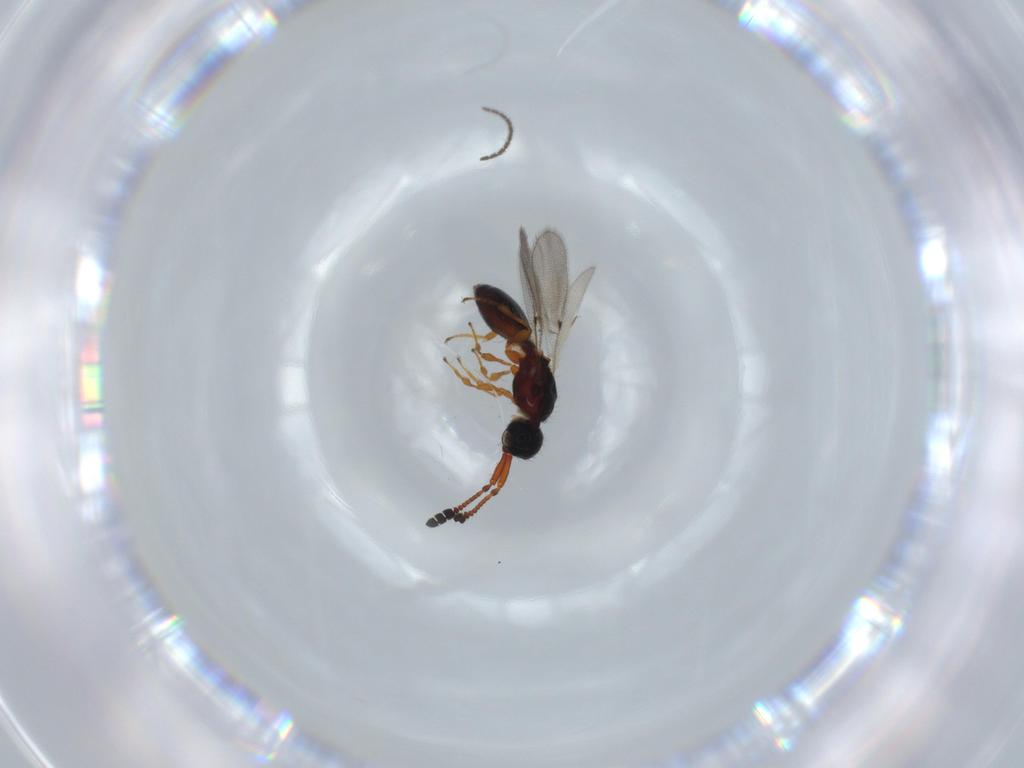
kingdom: Animalia
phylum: Arthropoda
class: Insecta
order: Hymenoptera
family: Diapriidae
